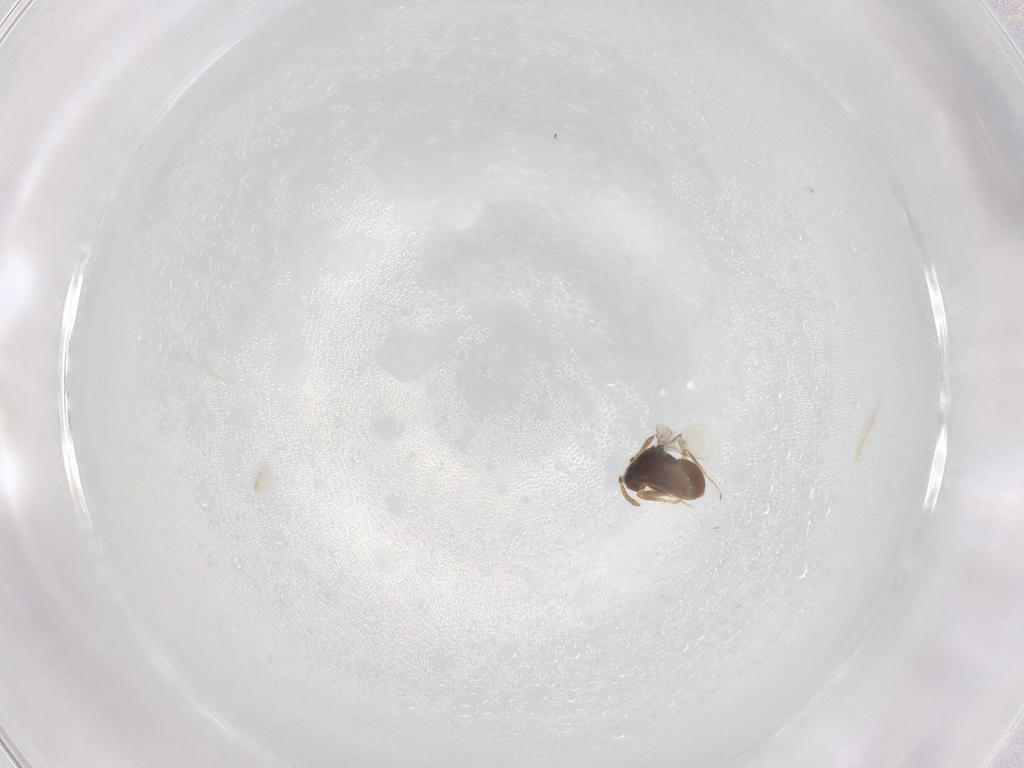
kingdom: Animalia
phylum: Arthropoda
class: Insecta
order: Hymenoptera
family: Scelionidae
